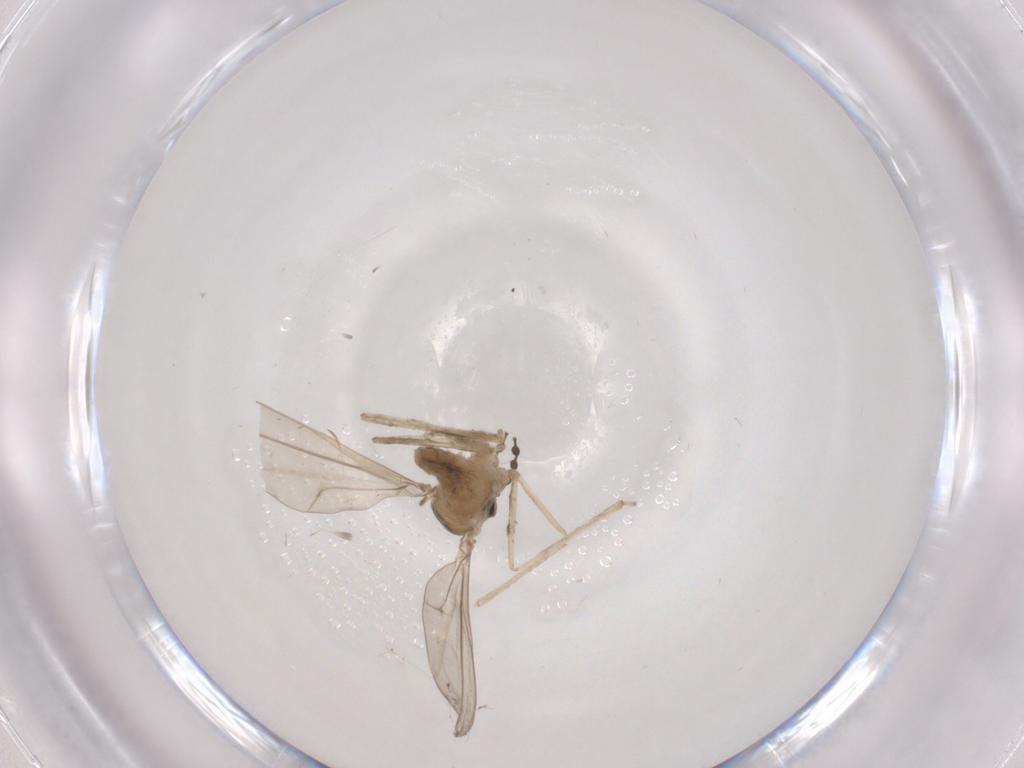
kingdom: Animalia
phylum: Arthropoda
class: Insecta
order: Diptera
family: Cecidomyiidae
